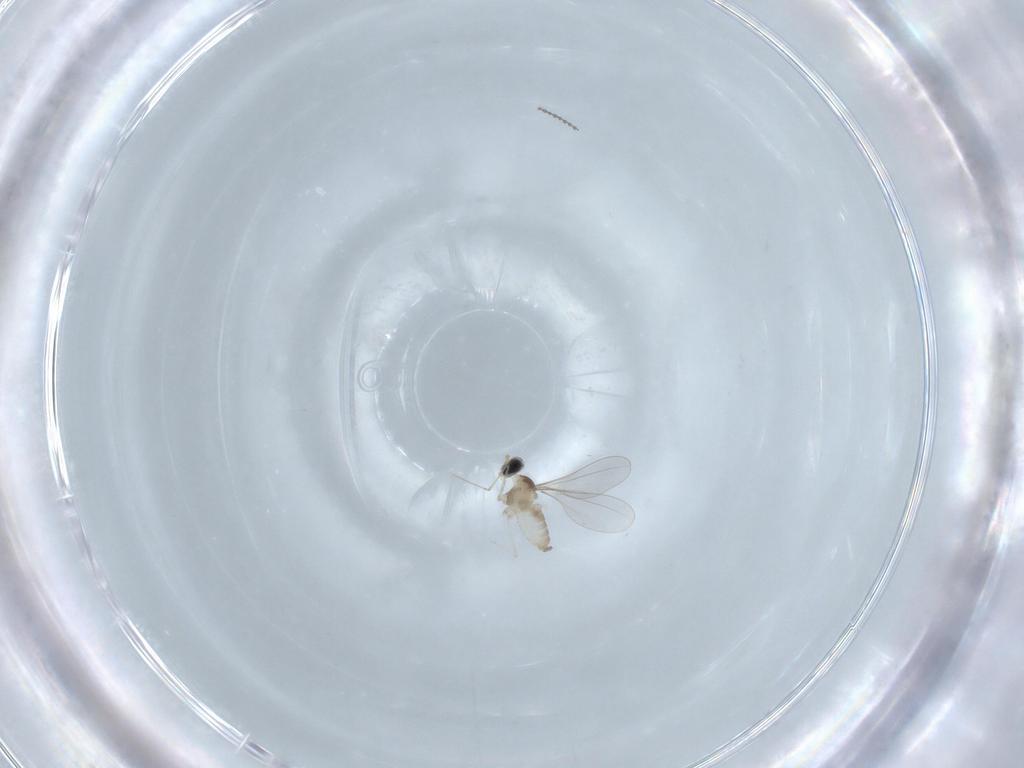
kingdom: Animalia
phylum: Arthropoda
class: Insecta
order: Diptera
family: Cecidomyiidae
